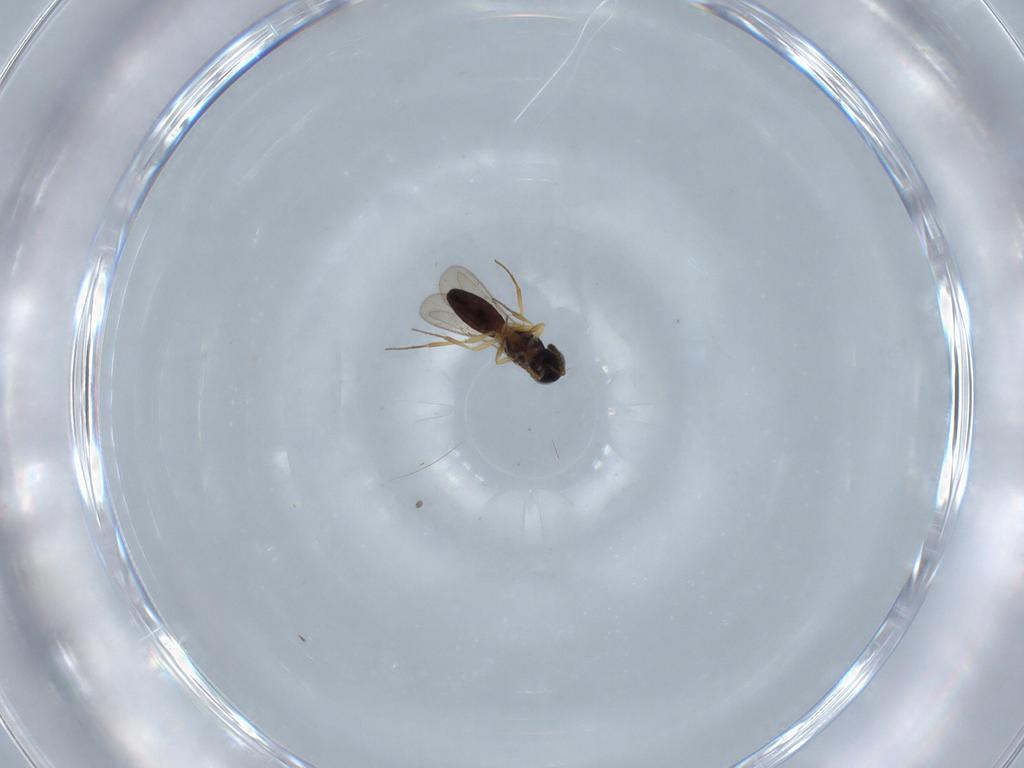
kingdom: Animalia
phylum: Arthropoda
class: Insecta
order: Hymenoptera
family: Scelionidae
